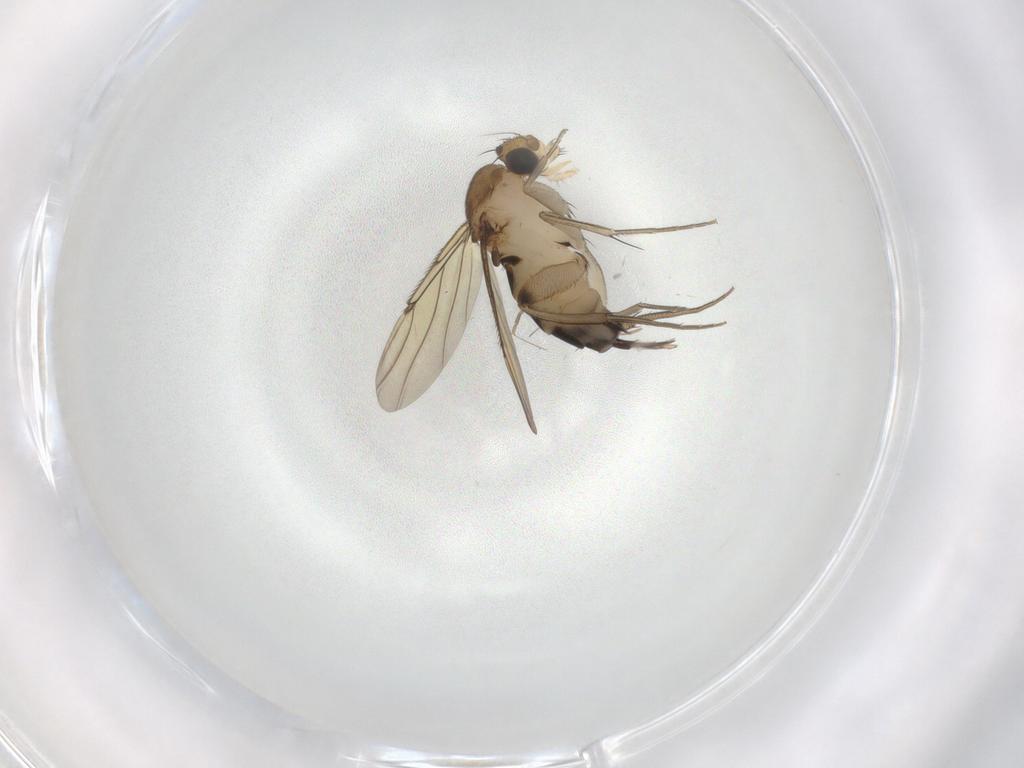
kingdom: Animalia
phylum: Arthropoda
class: Insecta
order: Diptera
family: Phoridae
